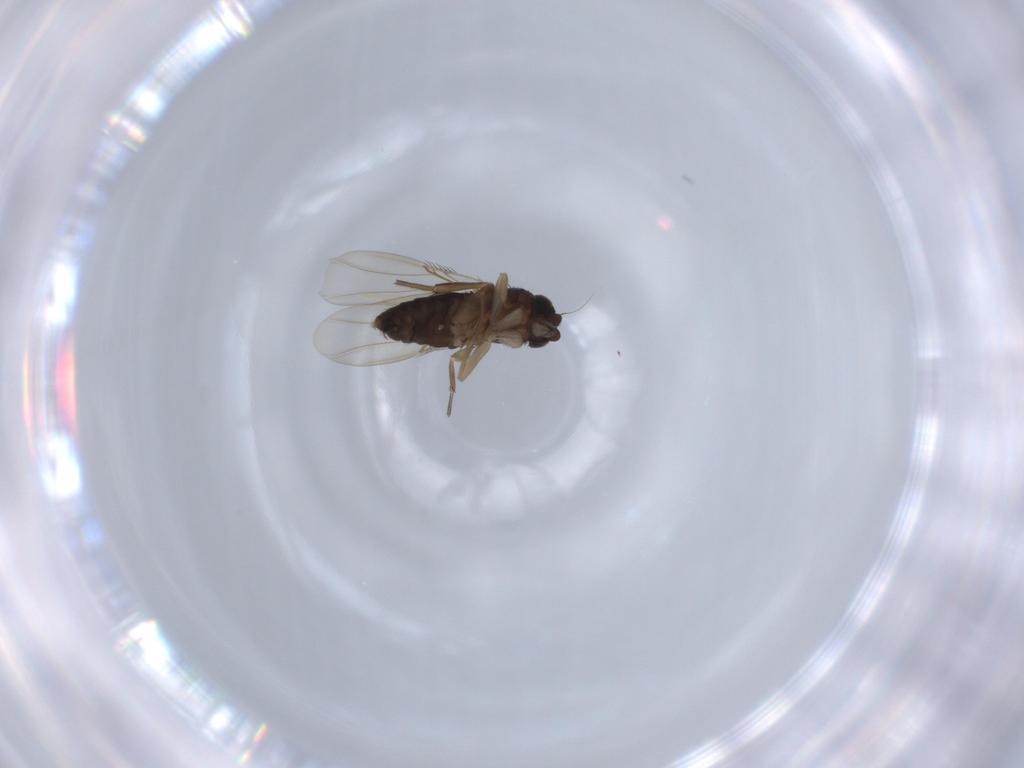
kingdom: Animalia
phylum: Arthropoda
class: Insecta
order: Diptera
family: Phoridae
